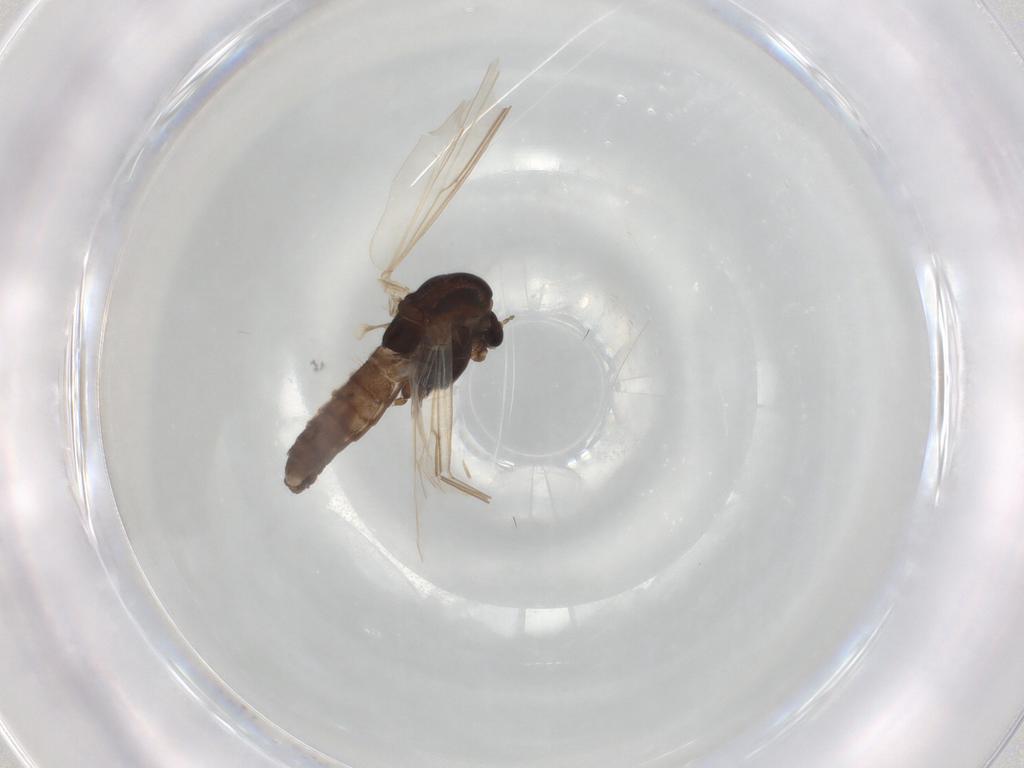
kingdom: Animalia
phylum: Arthropoda
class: Insecta
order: Diptera
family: Chironomidae
